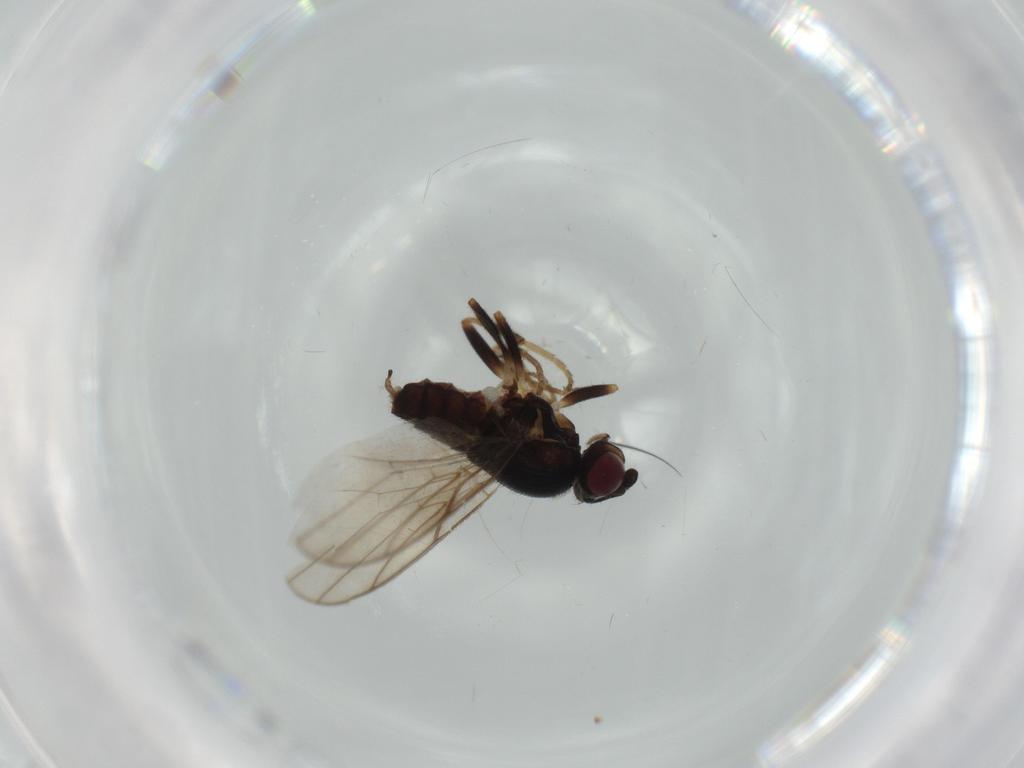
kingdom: Animalia
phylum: Arthropoda
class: Insecta
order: Diptera
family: Chloropidae
